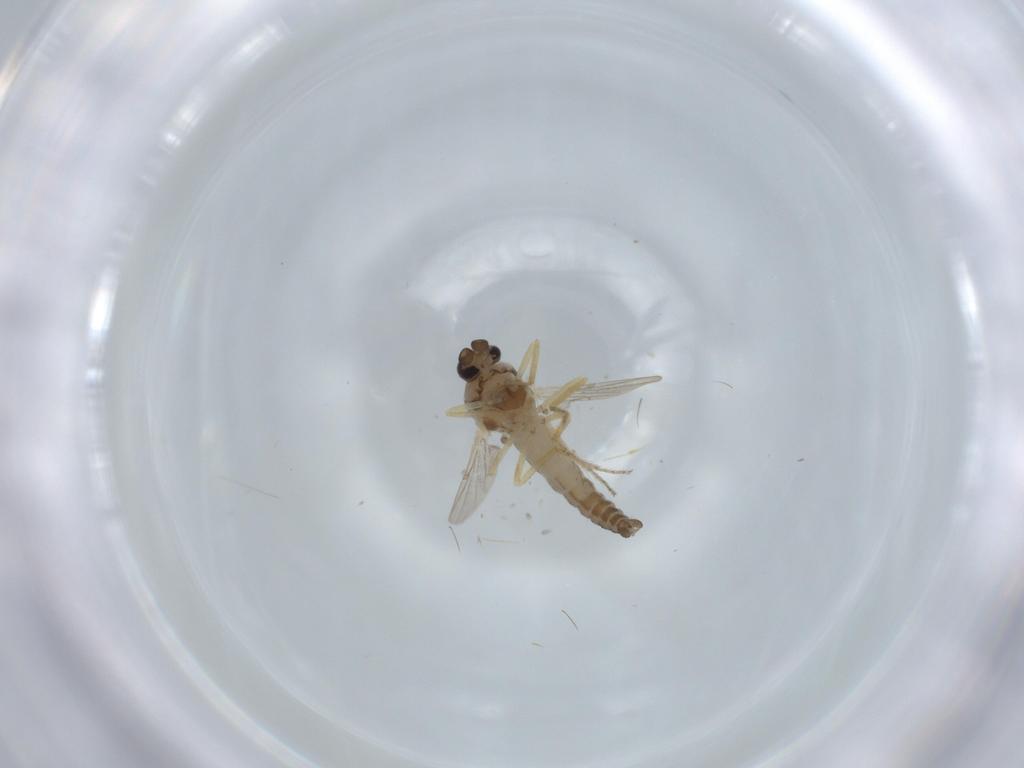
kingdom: Animalia
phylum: Arthropoda
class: Insecta
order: Diptera
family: Ceratopogonidae
